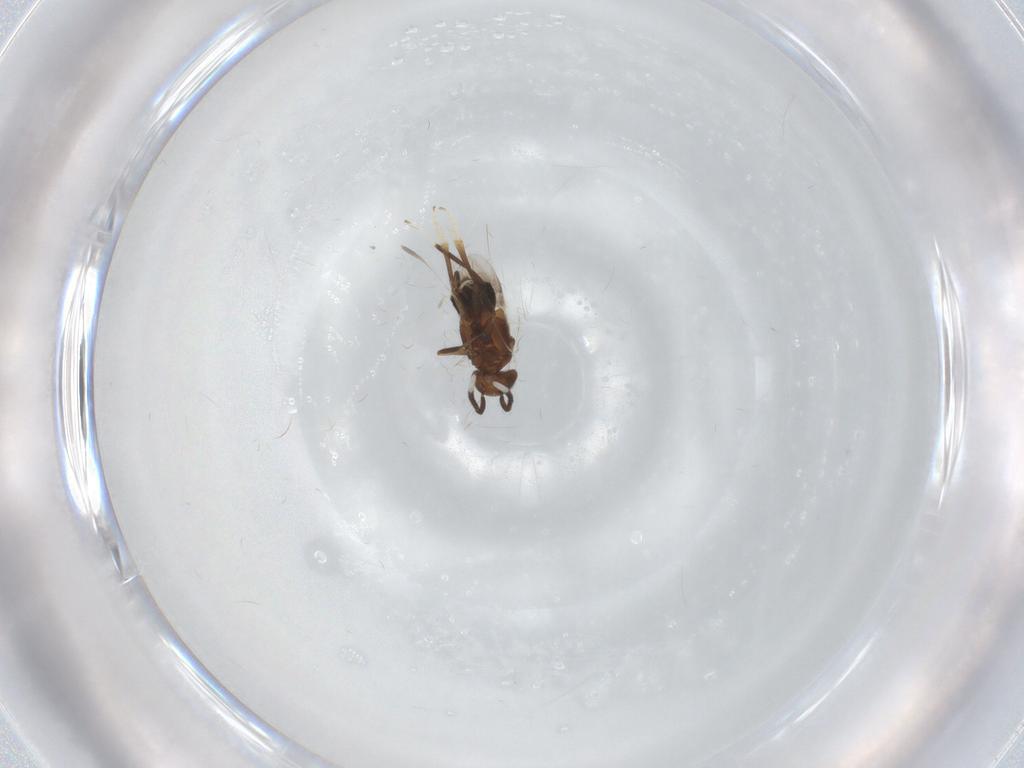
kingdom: Animalia
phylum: Arthropoda
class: Insecta
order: Hymenoptera
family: Encyrtidae
